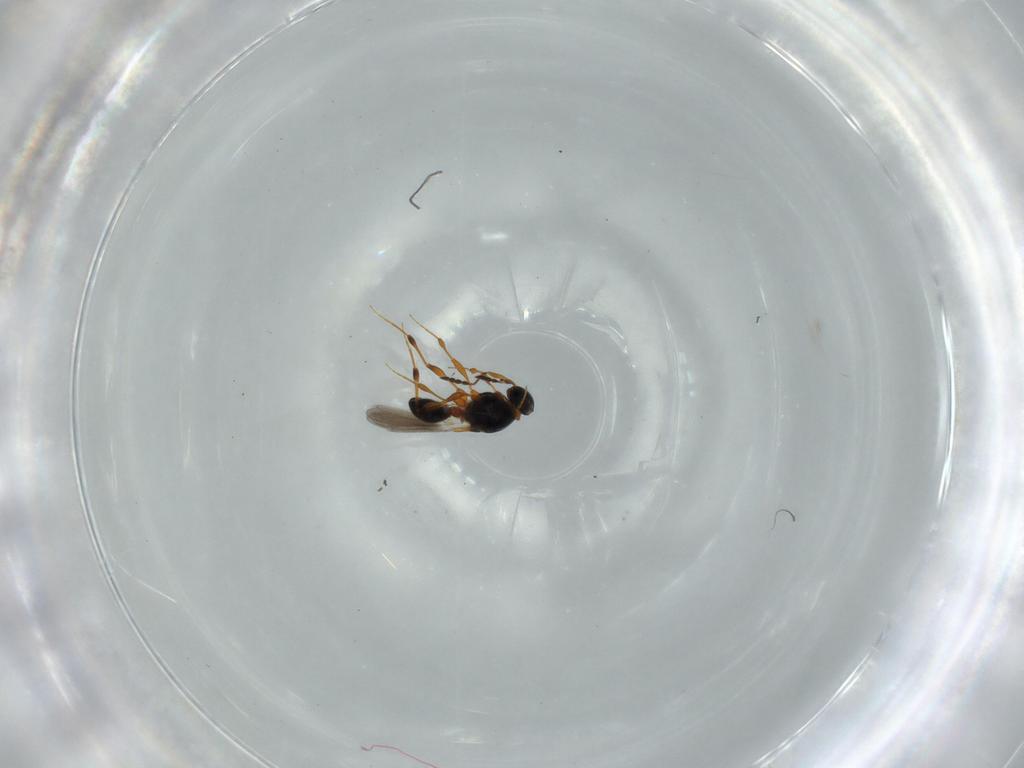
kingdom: Animalia
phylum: Arthropoda
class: Insecta
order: Hymenoptera
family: Platygastridae
